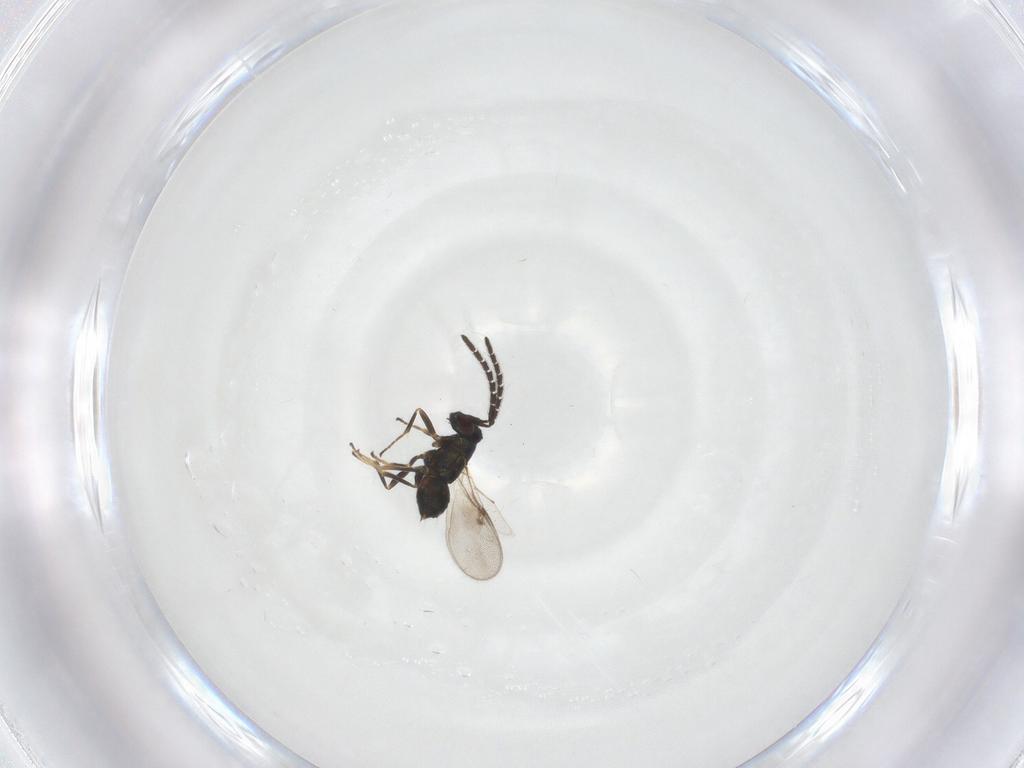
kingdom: Animalia
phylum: Arthropoda
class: Insecta
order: Hymenoptera
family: Encyrtidae
